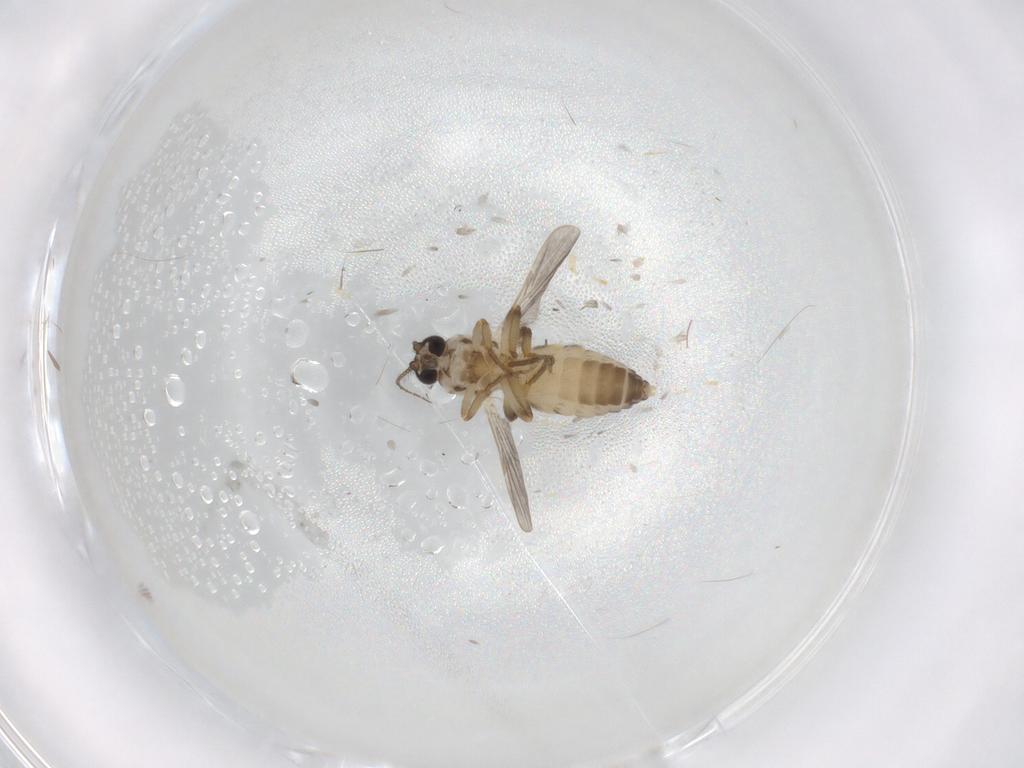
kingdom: Animalia
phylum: Arthropoda
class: Insecta
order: Diptera
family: Ceratopogonidae
